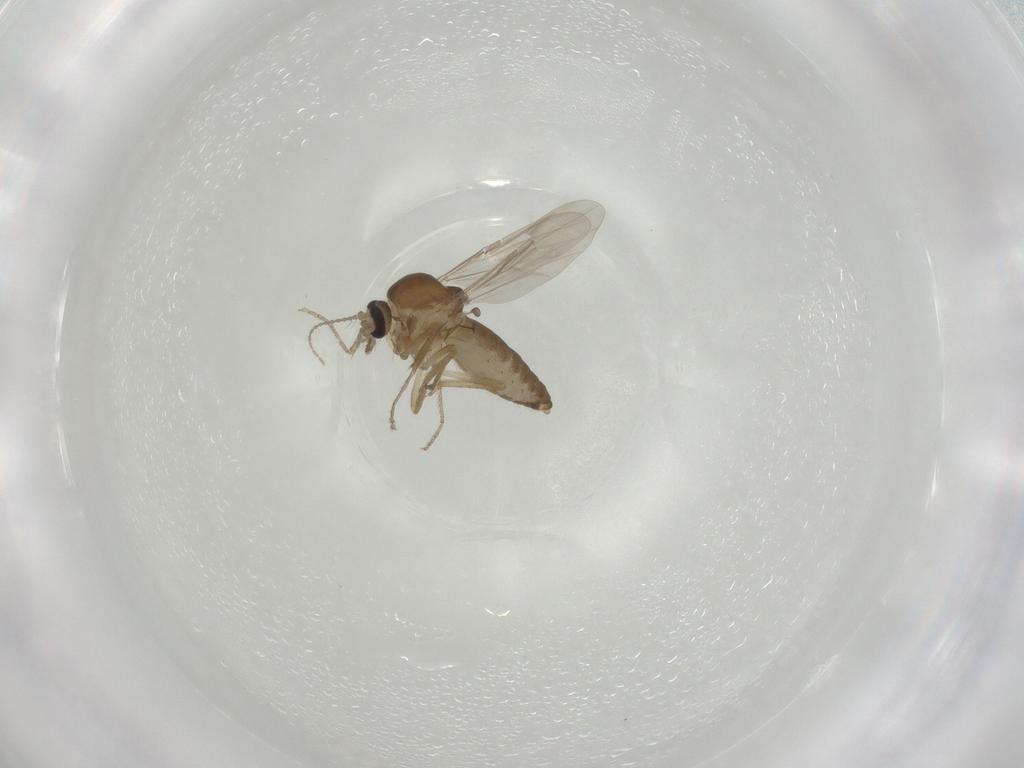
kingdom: Animalia
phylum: Arthropoda
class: Insecta
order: Diptera
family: Ceratopogonidae
